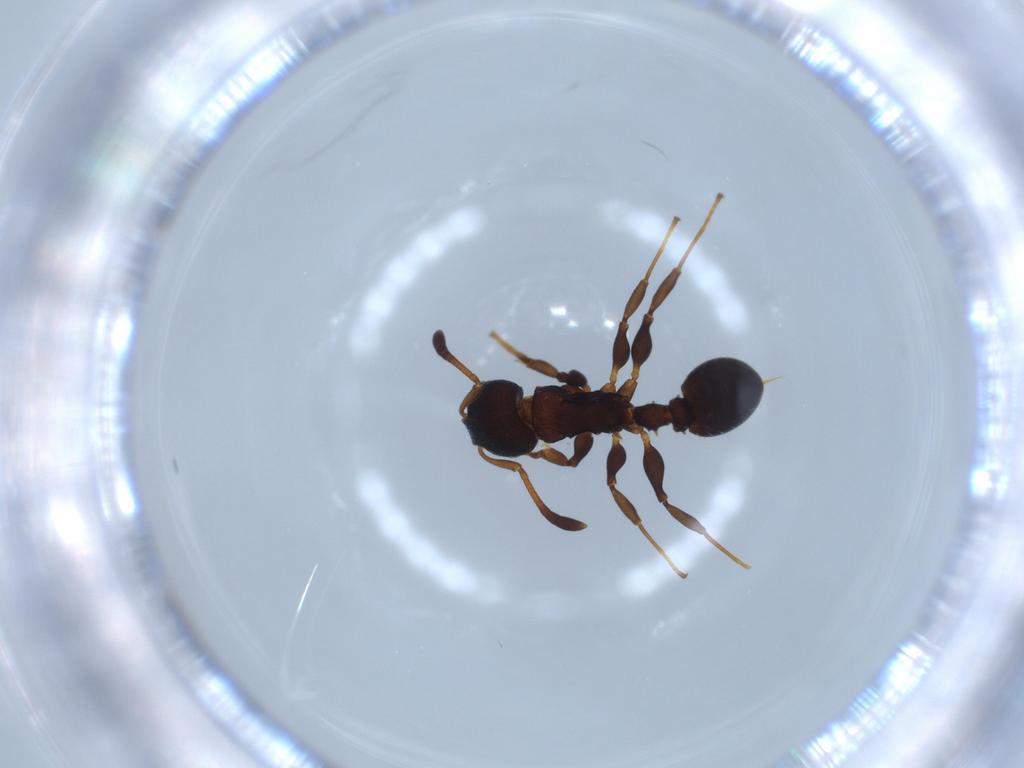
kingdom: Animalia
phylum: Arthropoda
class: Insecta
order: Hymenoptera
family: Formicidae
